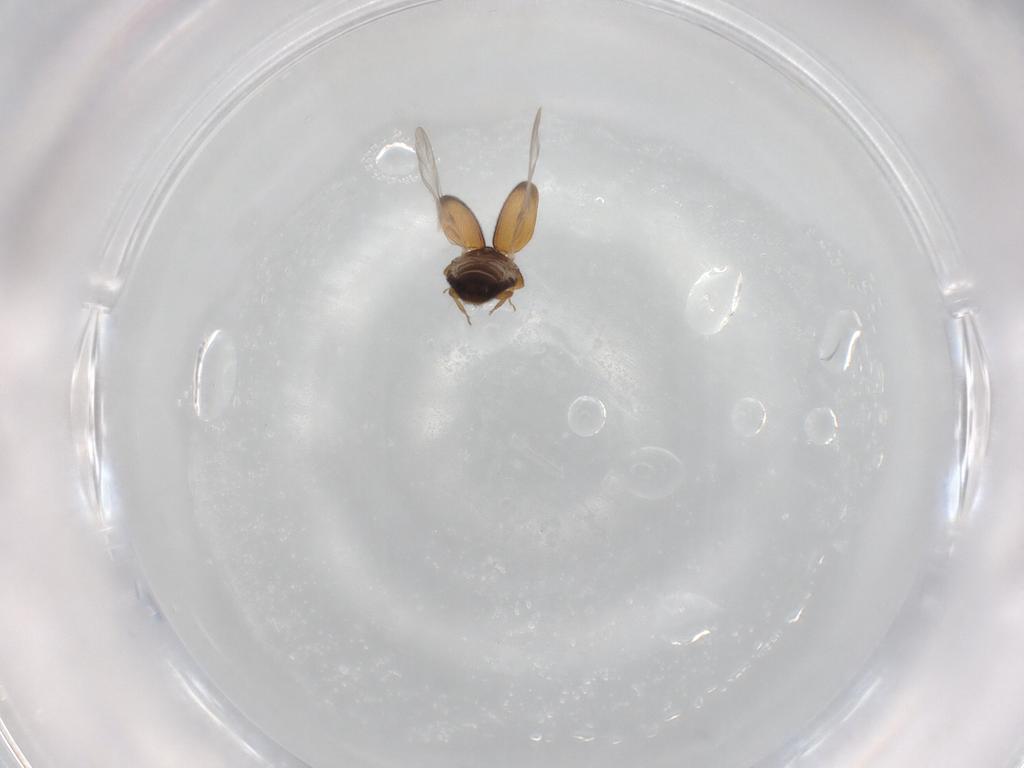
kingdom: Animalia
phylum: Arthropoda
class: Insecta
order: Coleoptera
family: Corylophidae
